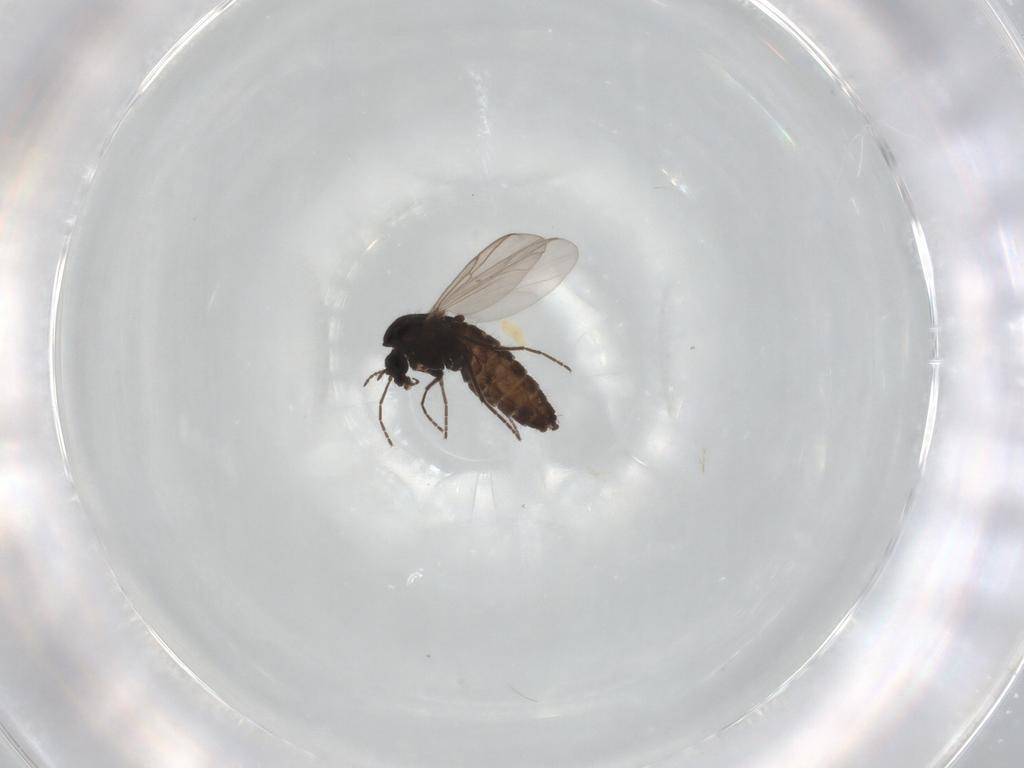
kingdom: Animalia
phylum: Arthropoda
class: Insecta
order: Diptera
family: Chironomidae
